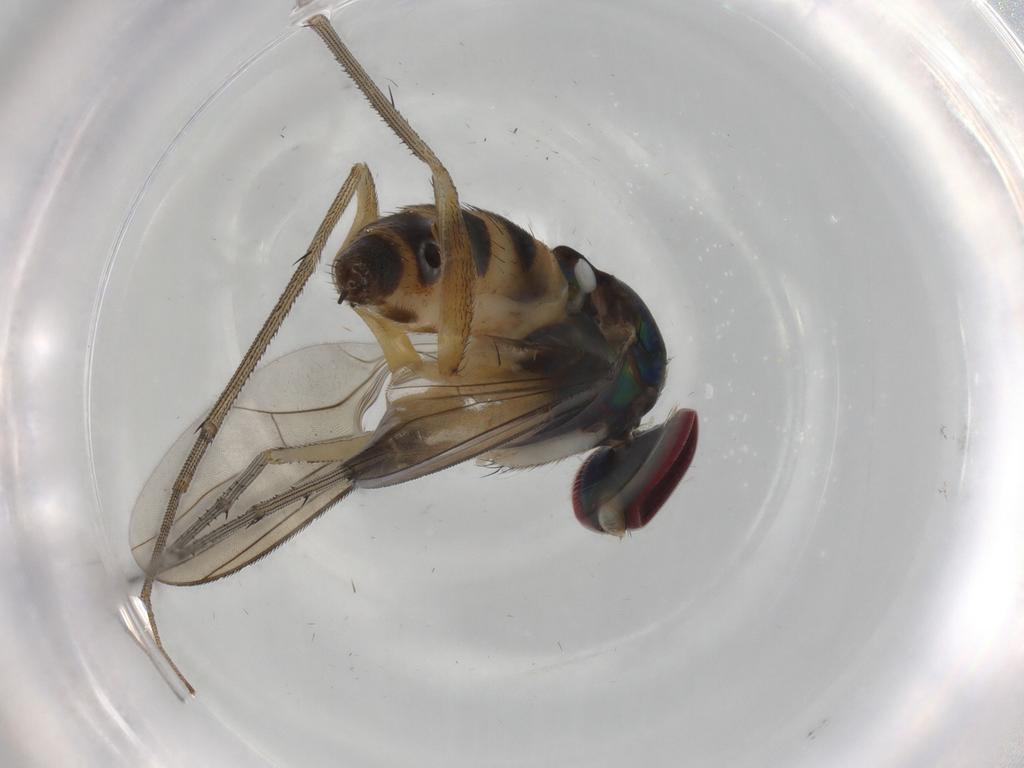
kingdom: Animalia
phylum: Arthropoda
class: Insecta
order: Diptera
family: Dolichopodidae
